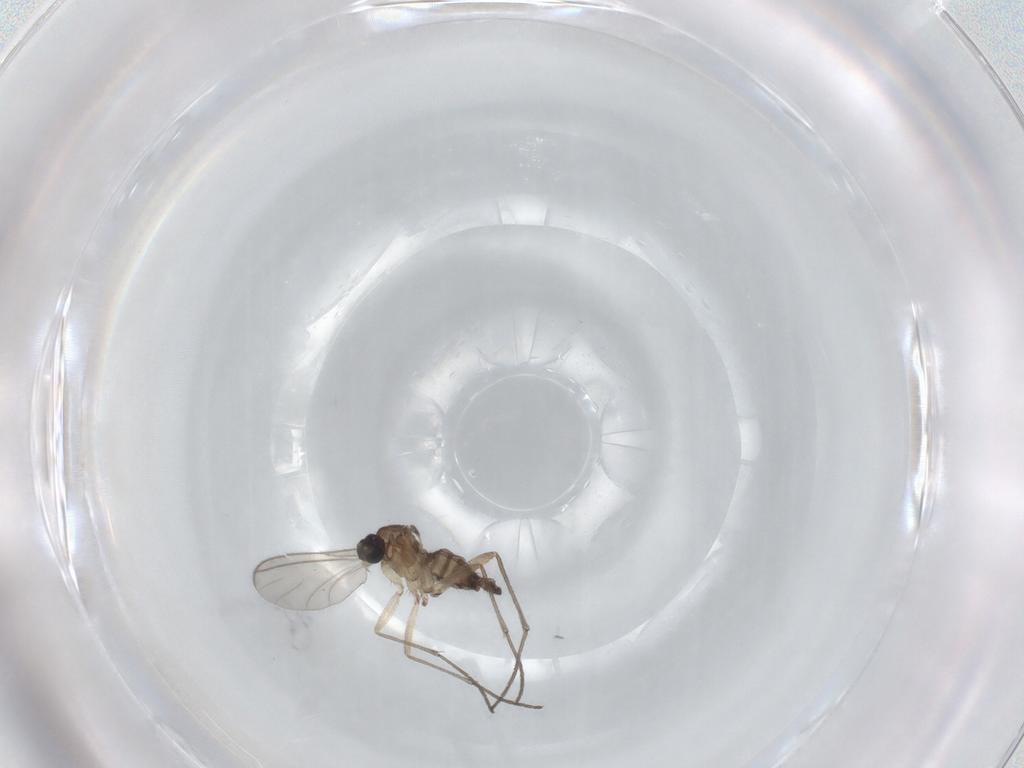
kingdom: Animalia
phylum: Arthropoda
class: Insecta
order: Diptera
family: Sciaridae
